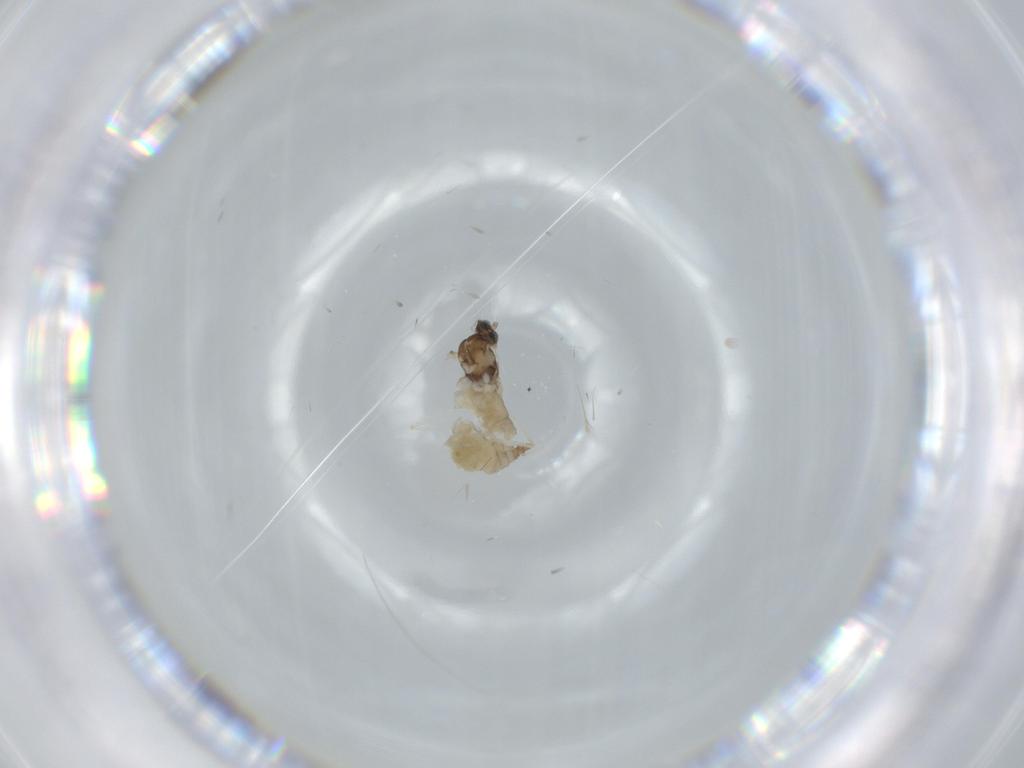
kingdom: Animalia
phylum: Arthropoda
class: Insecta
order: Diptera
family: Cecidomyiidae
